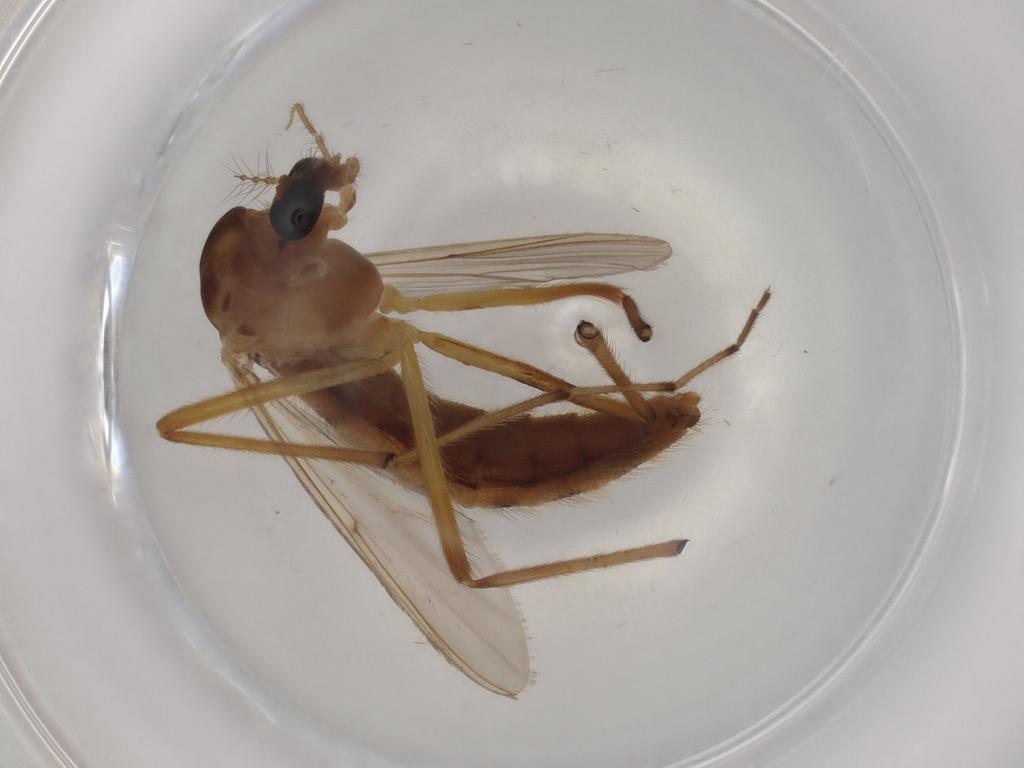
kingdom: Animalia
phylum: Arthropoda
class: Insecta
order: Diptera
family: Chironomidae
